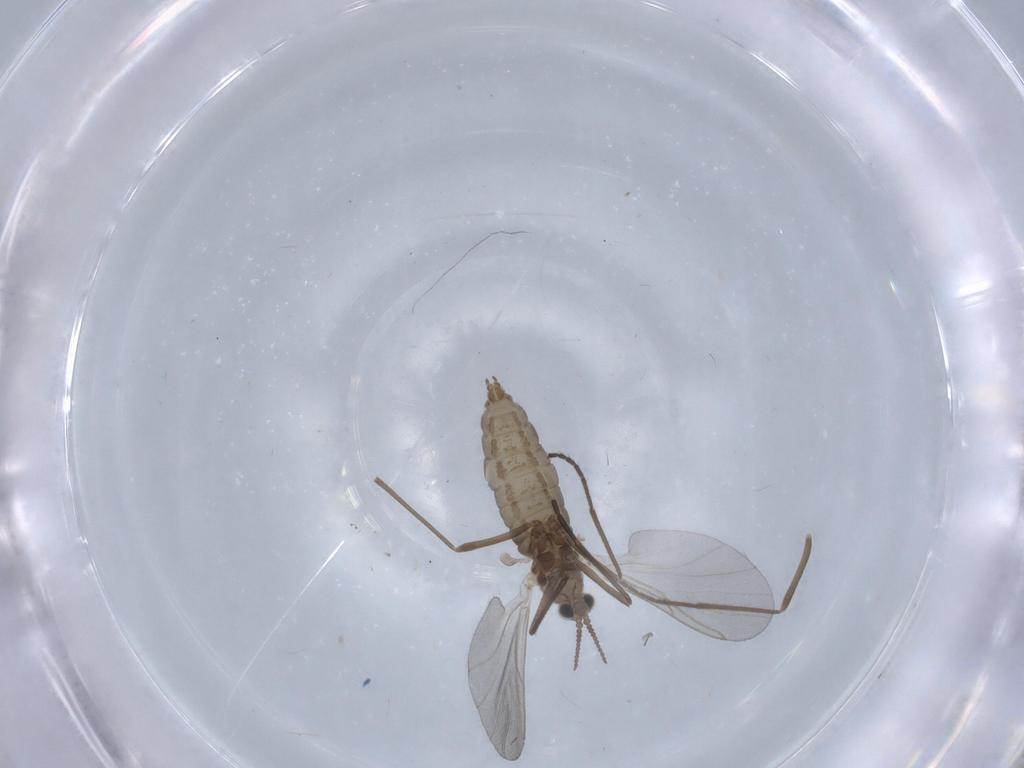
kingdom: Animalia
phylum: Arthropoda
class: Insecta
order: Diptera
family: Cecidomyiidae
